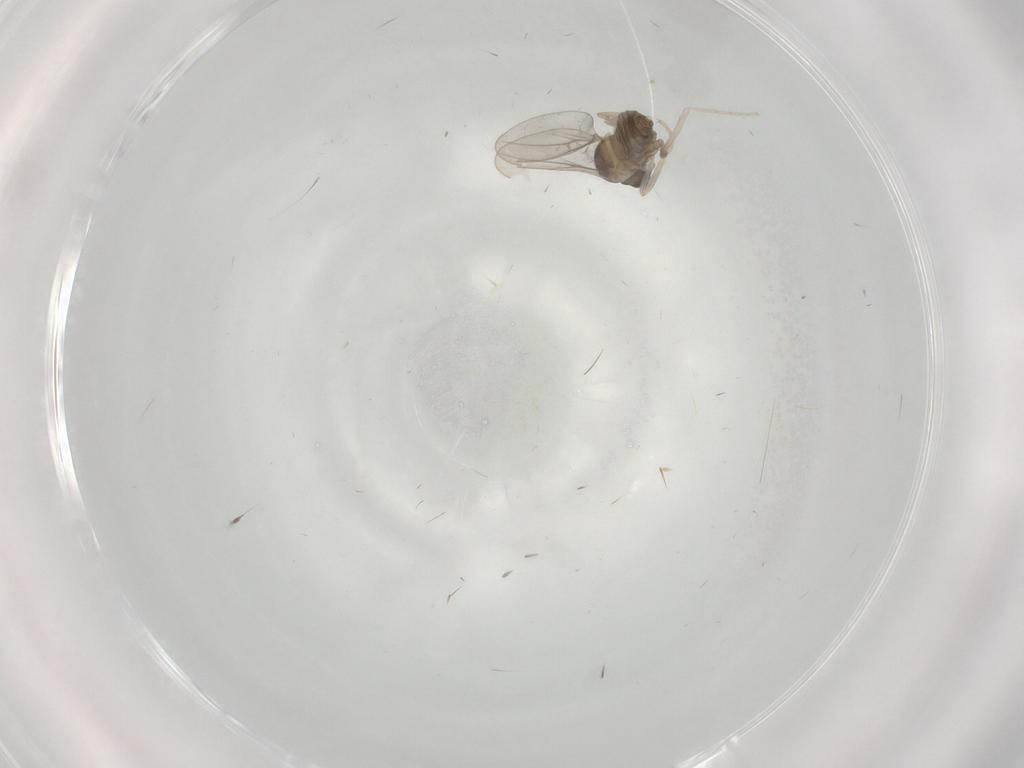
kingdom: Animalia
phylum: Arthropoda
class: Insecta
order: Diptera
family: Cecidomyiidae
